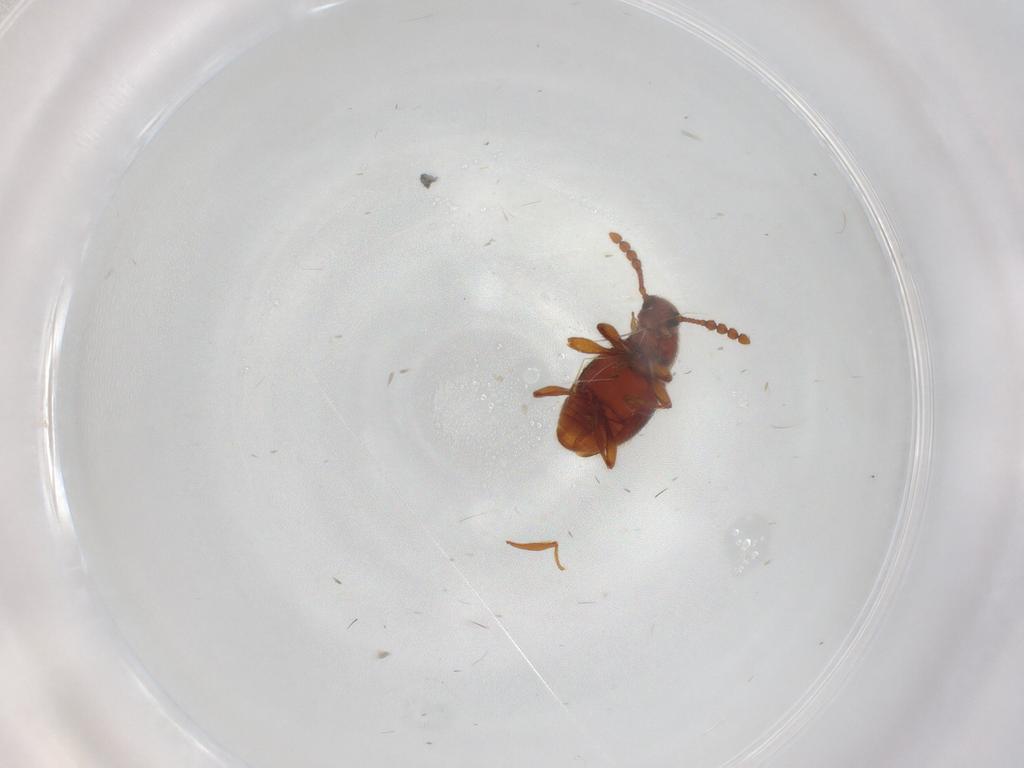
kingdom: Animalia
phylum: Arthropoda
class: Insecta
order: Coleoptera
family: Staphylinidae
